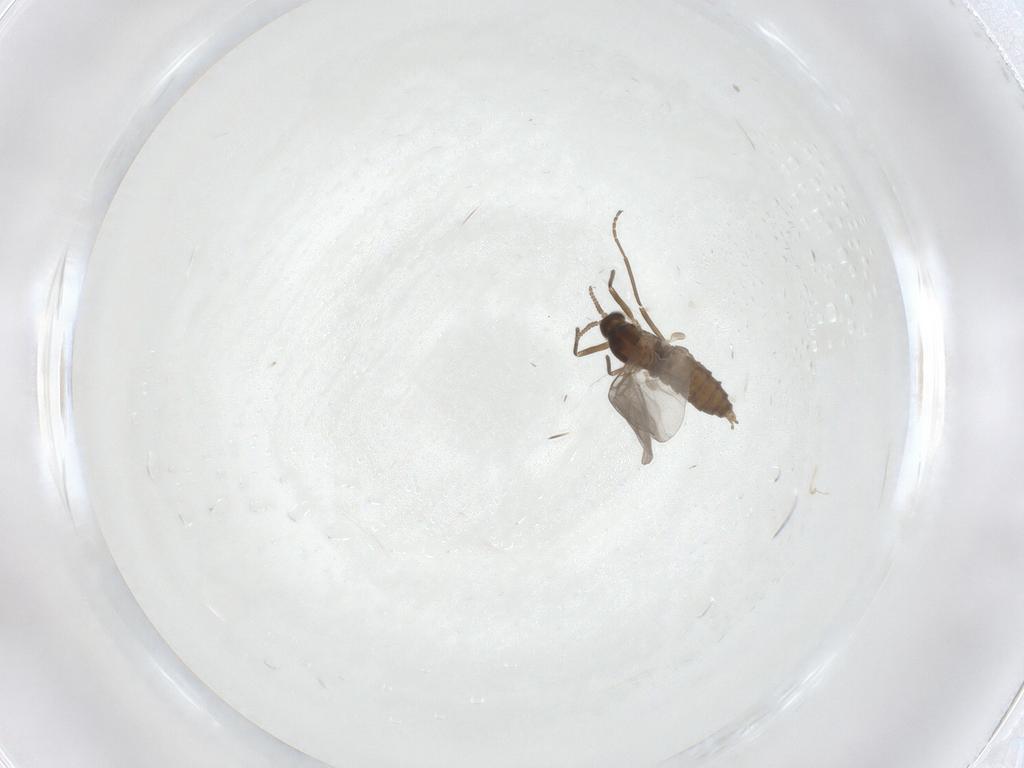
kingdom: Animalia
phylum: Arthropoda
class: Insecta
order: Diptera
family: Cecidomyiidae
